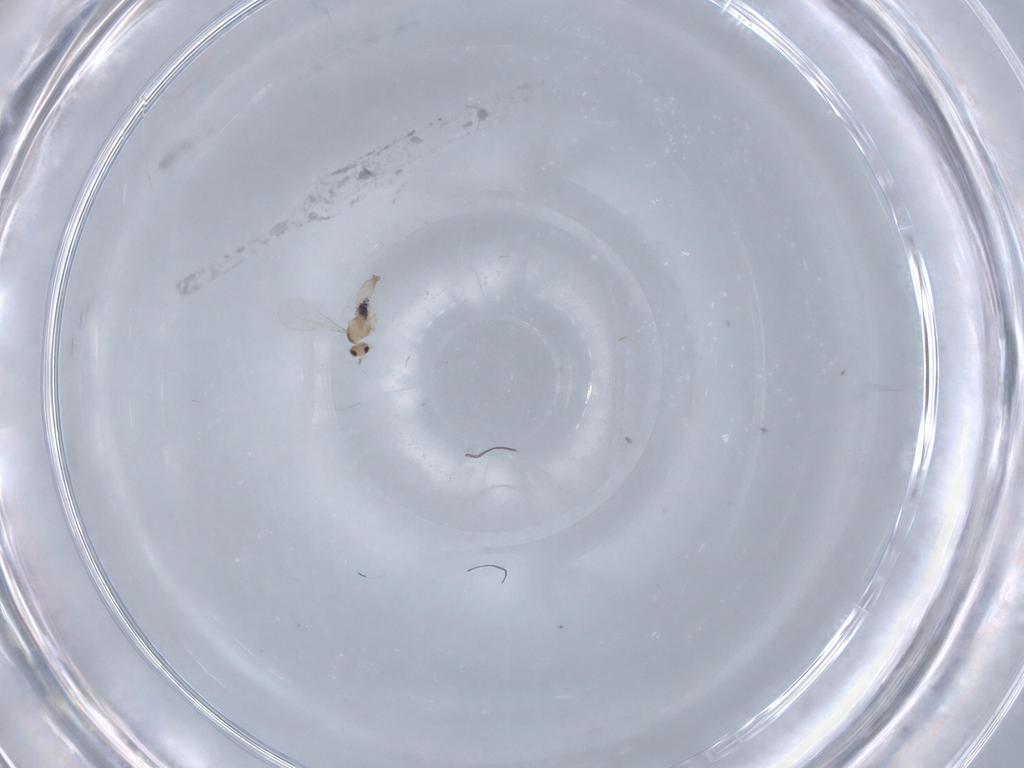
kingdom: Animalia
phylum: Arthropoda
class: Insecta
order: Diptera
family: Cecidomyiidae
